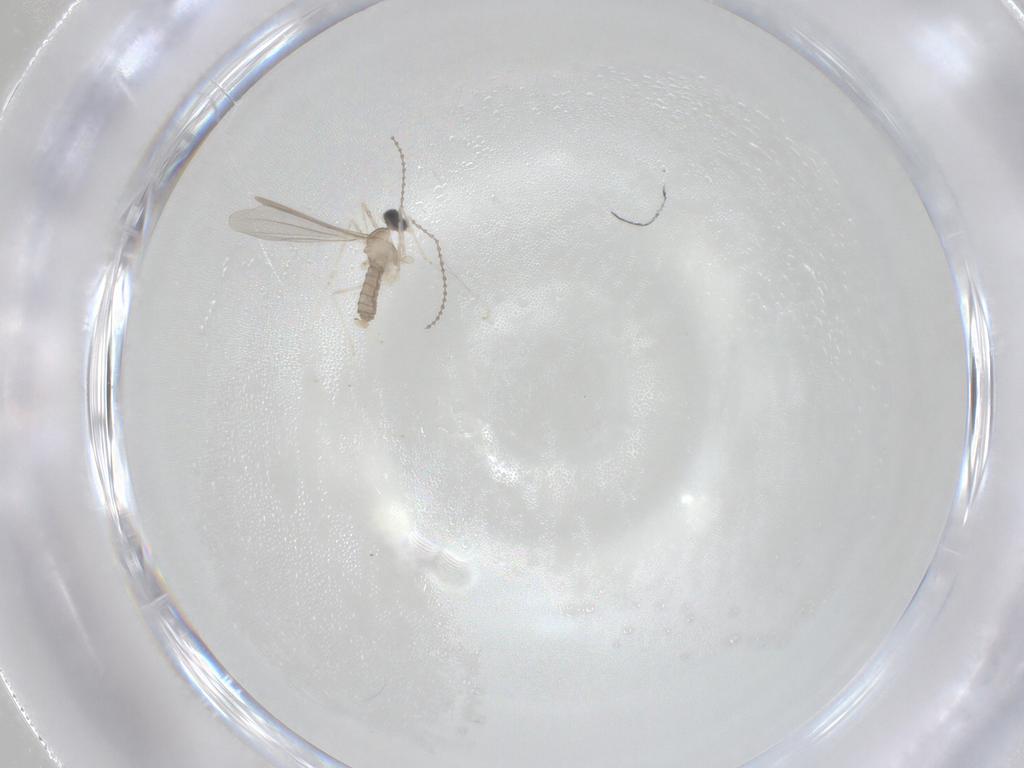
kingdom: Animalia
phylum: Arthropoda
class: Insecta
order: Diptera
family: Cecidomyiidae
